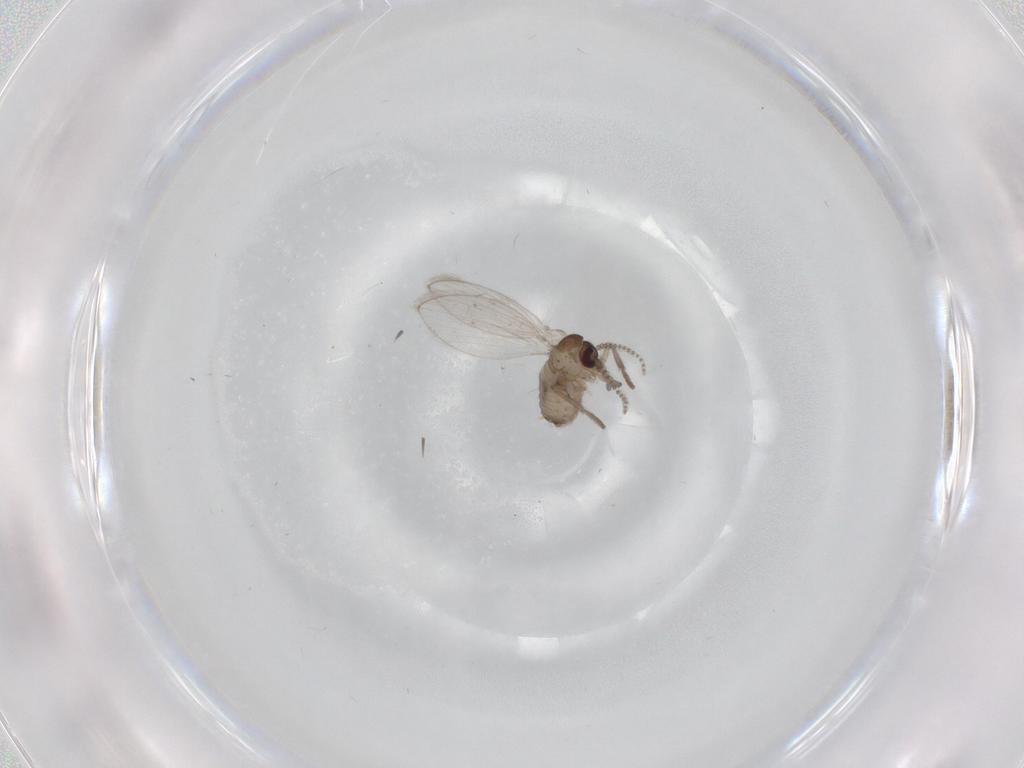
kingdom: Animalia
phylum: Arthropoda
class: Insecta
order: Diptera
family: Psychodidae
